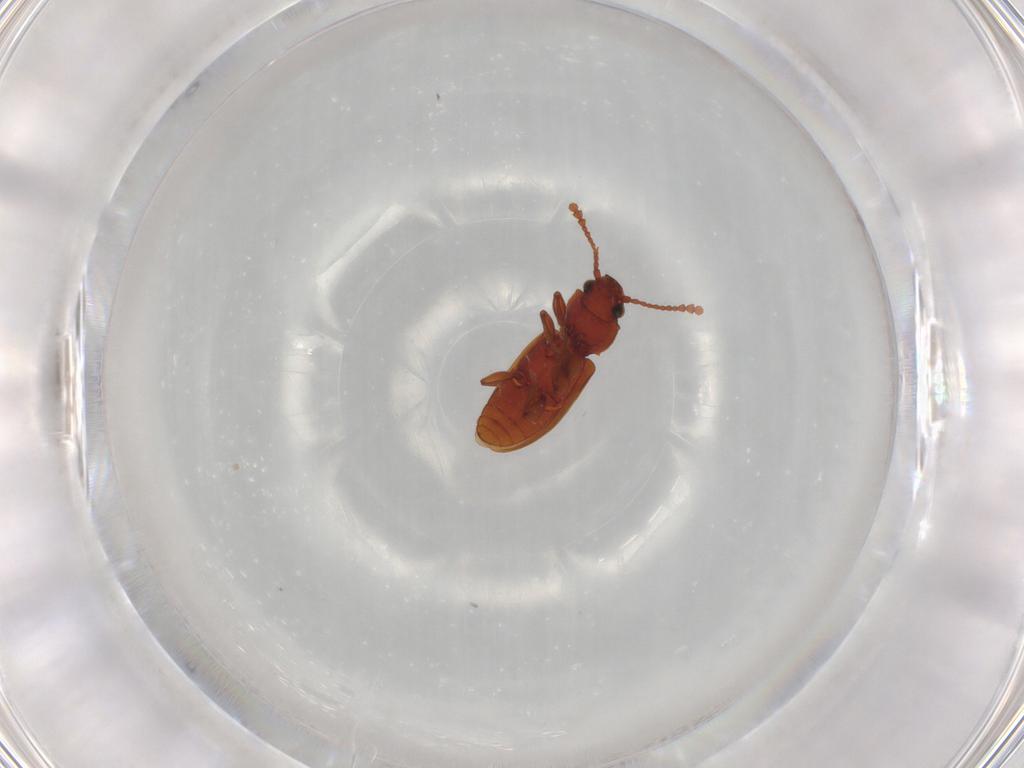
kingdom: Animalia
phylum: Arthropoda
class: Insecta
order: Coleoptera
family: Silvanidae
